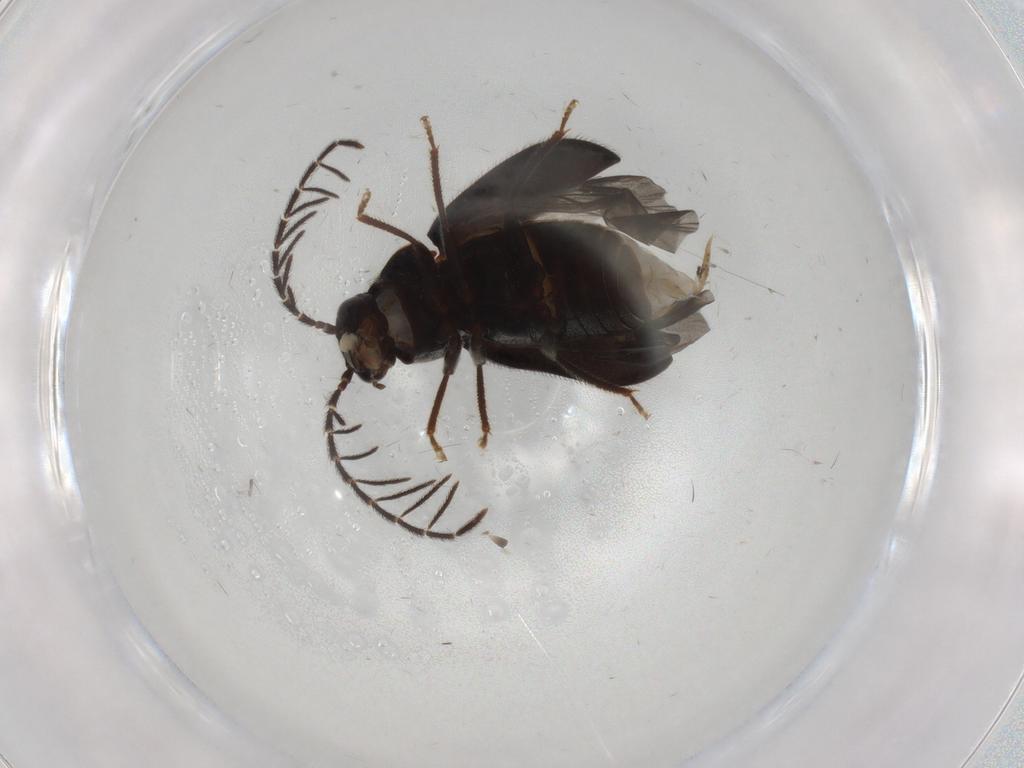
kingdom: Animalia
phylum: Arthropoda
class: Insecta
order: Coleoptera
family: Ptilodactylidae
